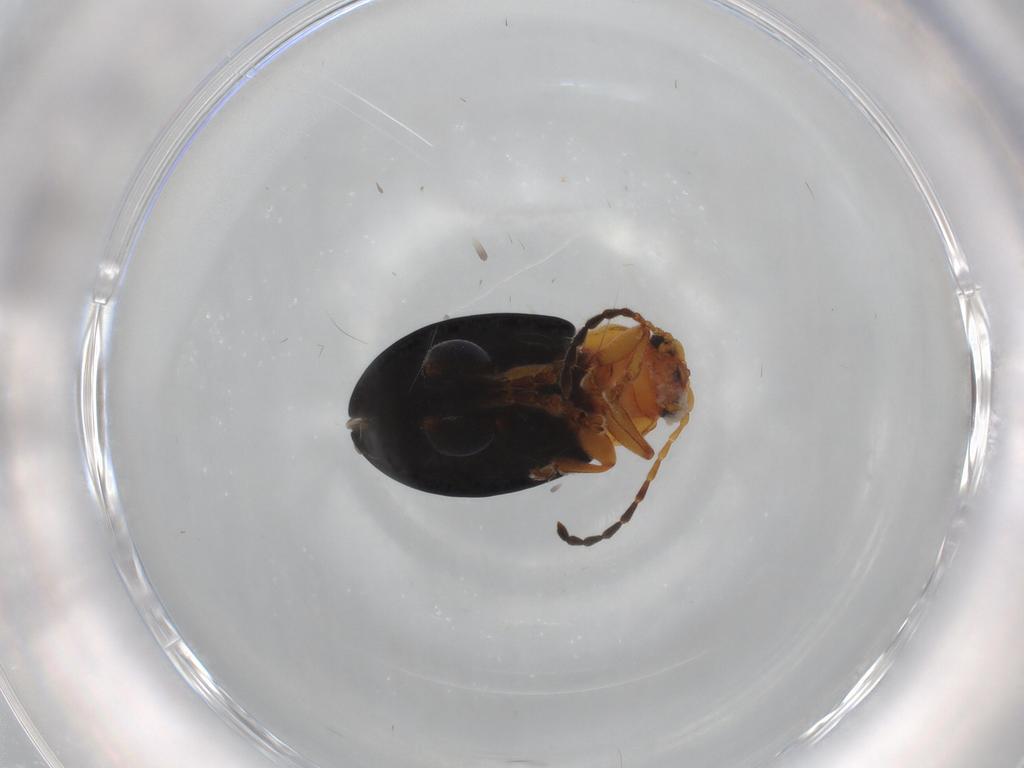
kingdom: Animalia
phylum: Arthropoda
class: Insecta
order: Coleoptera
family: Chrysomelidae
